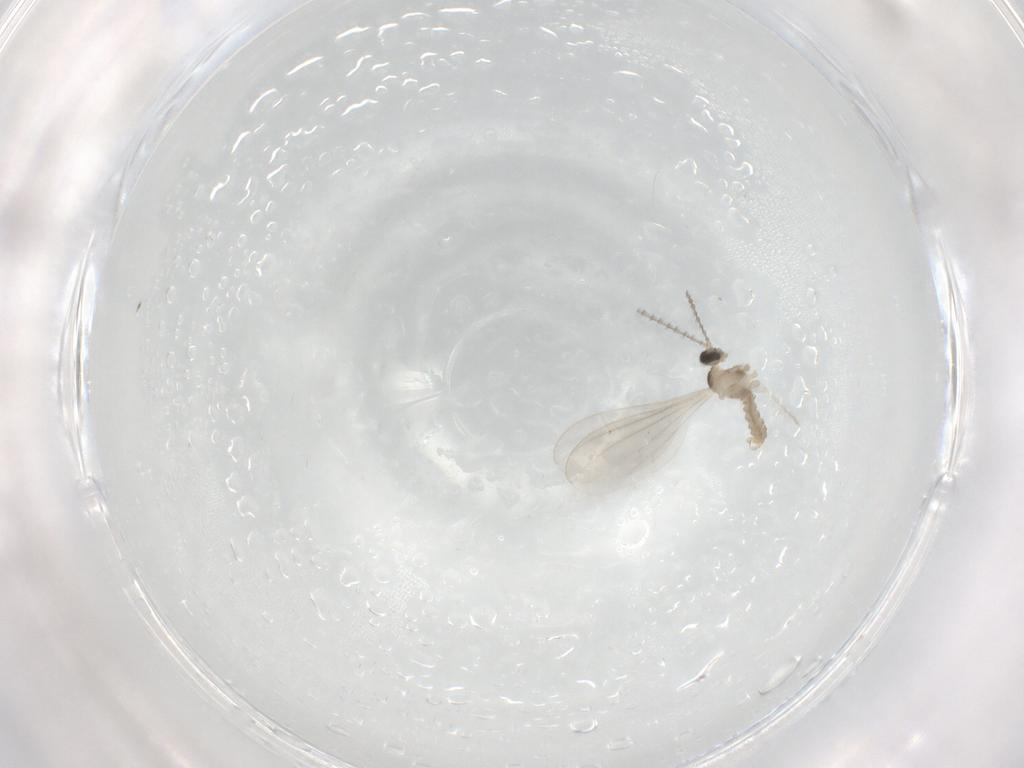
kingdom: Animalia
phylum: Arthropoda
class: Insecta
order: Diptera
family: Cecidomyiidae
